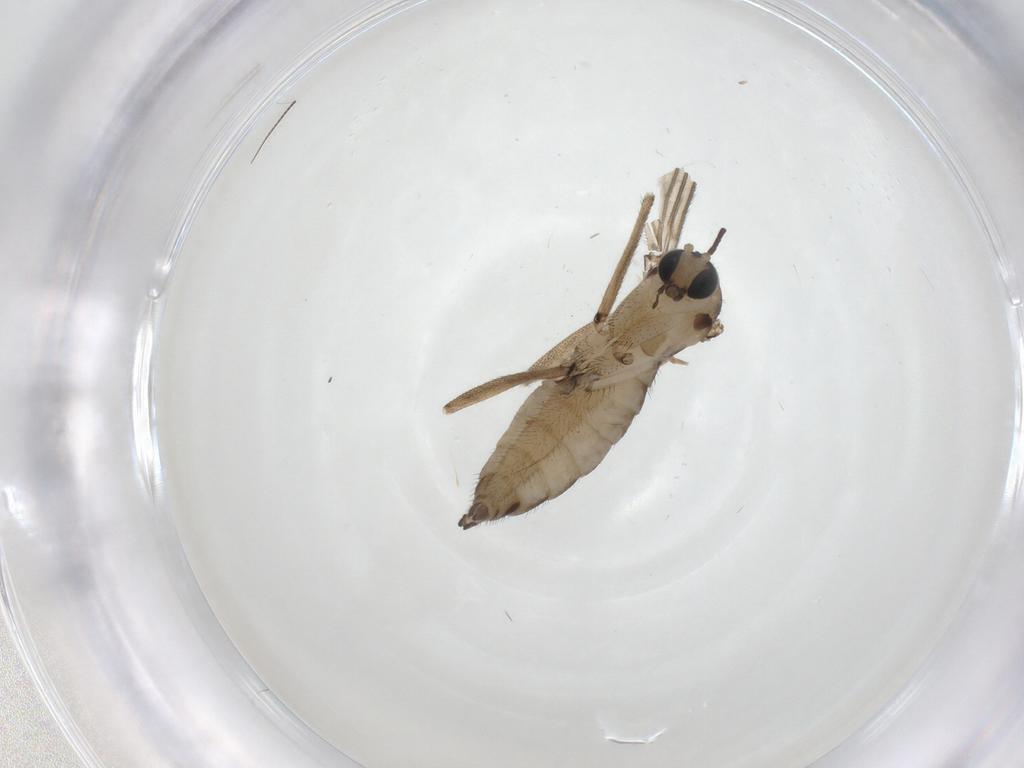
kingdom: Animalia
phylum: Arthropoda
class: Insecta
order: Diptera
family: Sciaridae
